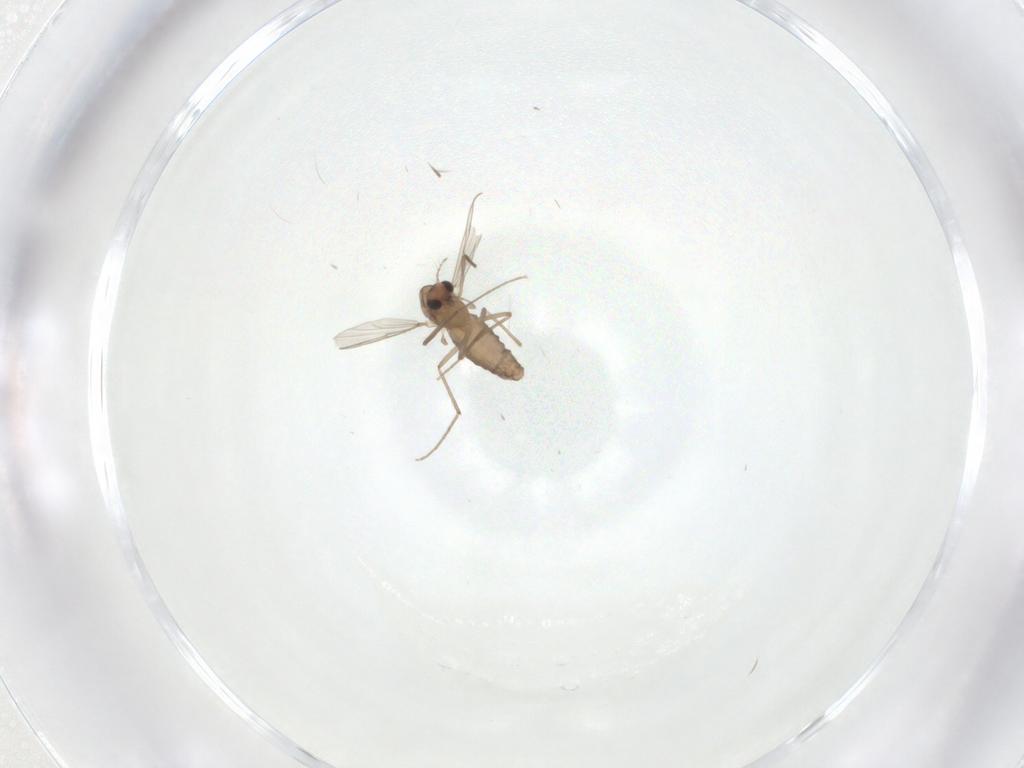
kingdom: Animalia
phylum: Arthropoda
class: Insecta
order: Diptera
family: Chironomidae
